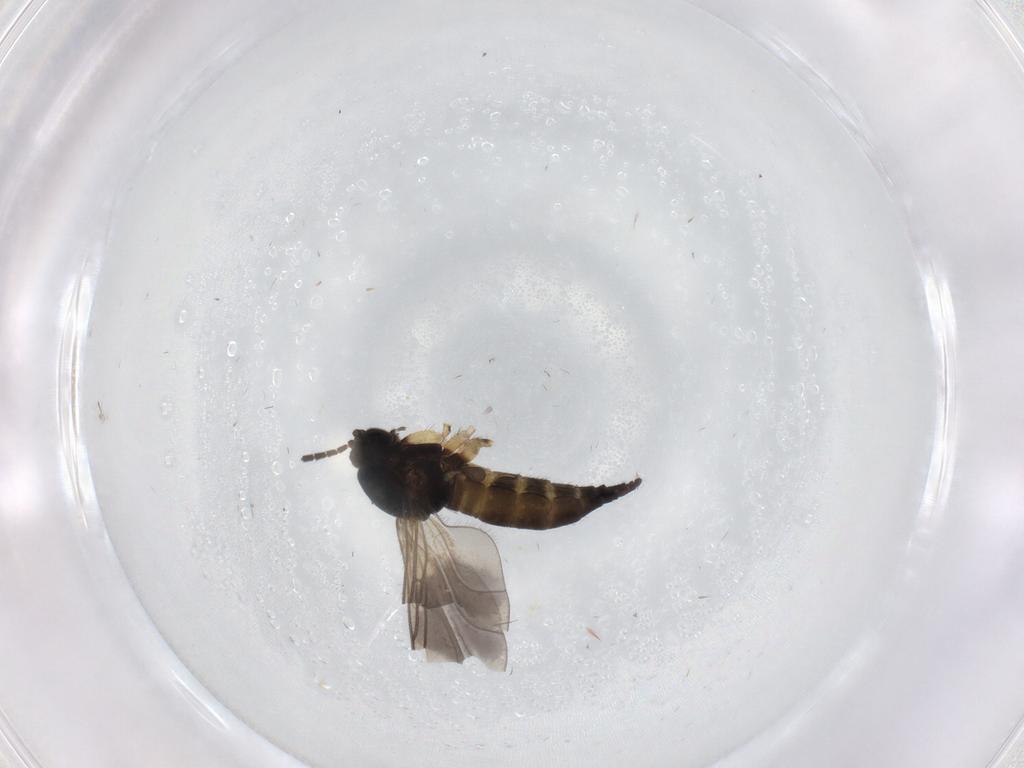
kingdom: Animalia
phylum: Arthropoda
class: Insecta
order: Diptera
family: Sciaridae
